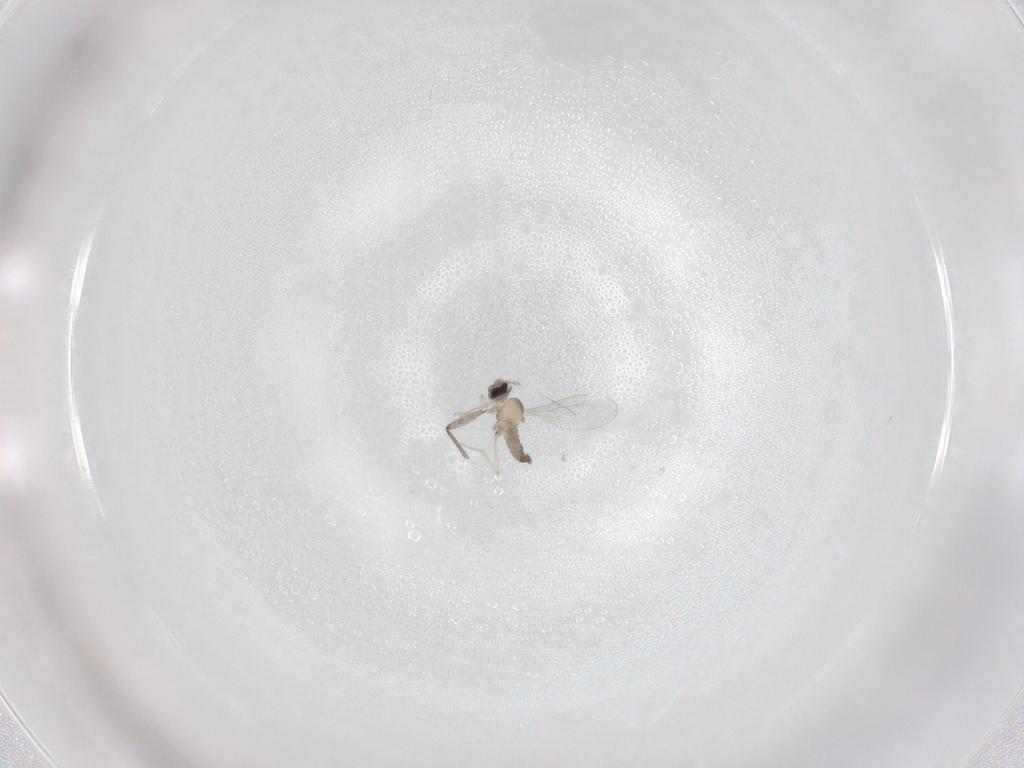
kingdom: Animalia
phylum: Arthropoda
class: Insecta
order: Diptera
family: Cecidomyiidae
